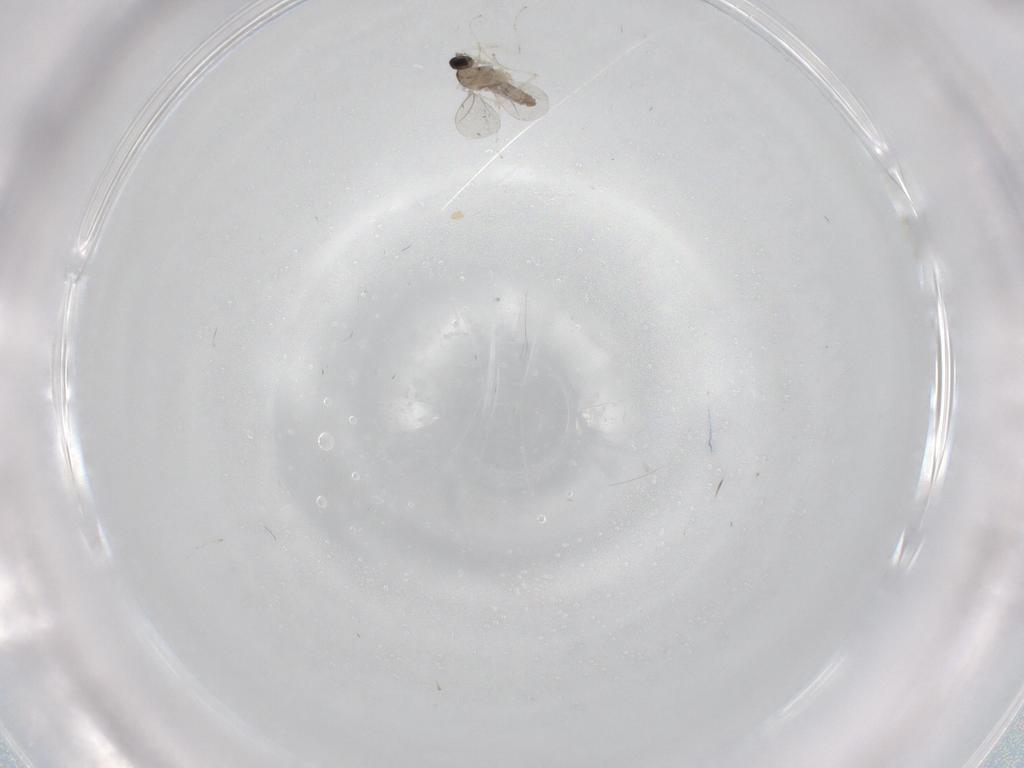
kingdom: Animalia
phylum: Arthropoda
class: Insecta
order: Diptera
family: Cecidomyiidae
